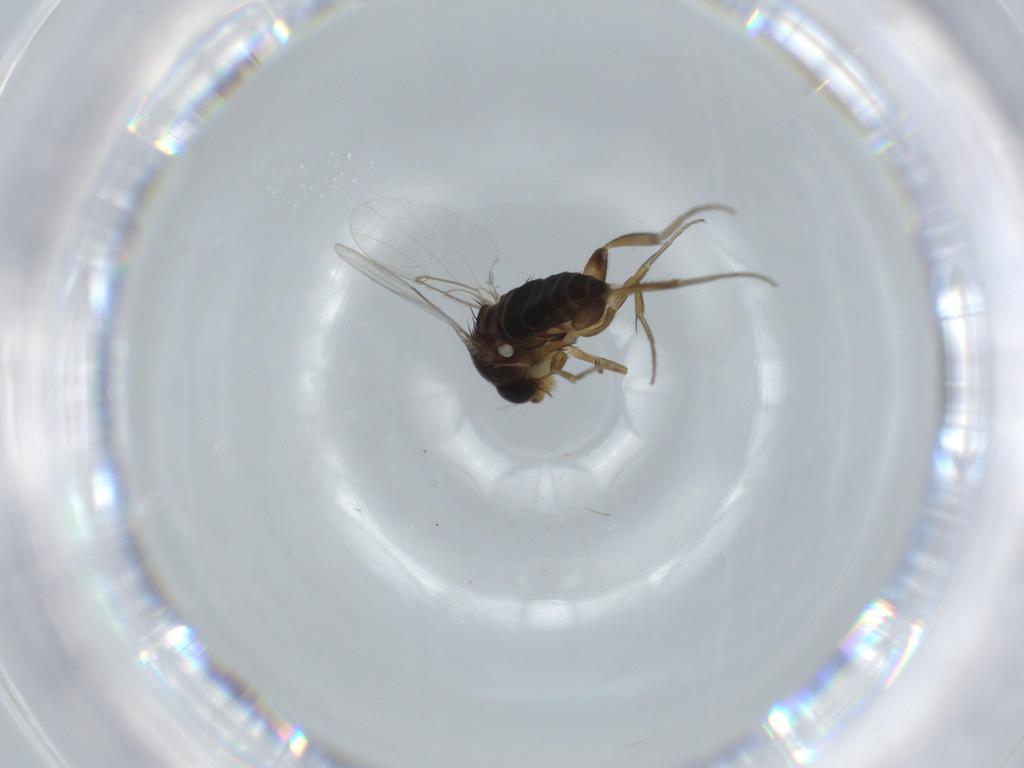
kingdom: Animalia
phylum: Arthropoda
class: Insecta
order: Diptera
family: Phoridae
